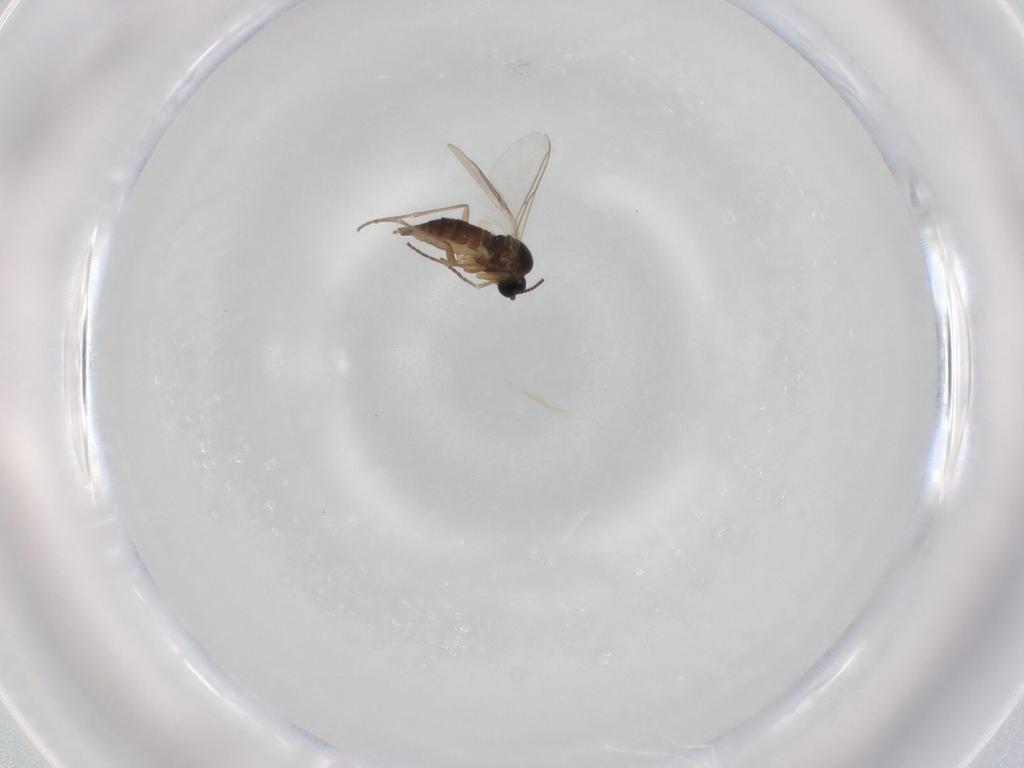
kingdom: Animalia
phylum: Arthropoda
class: Insecta
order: Diptera
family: Sciaridae
